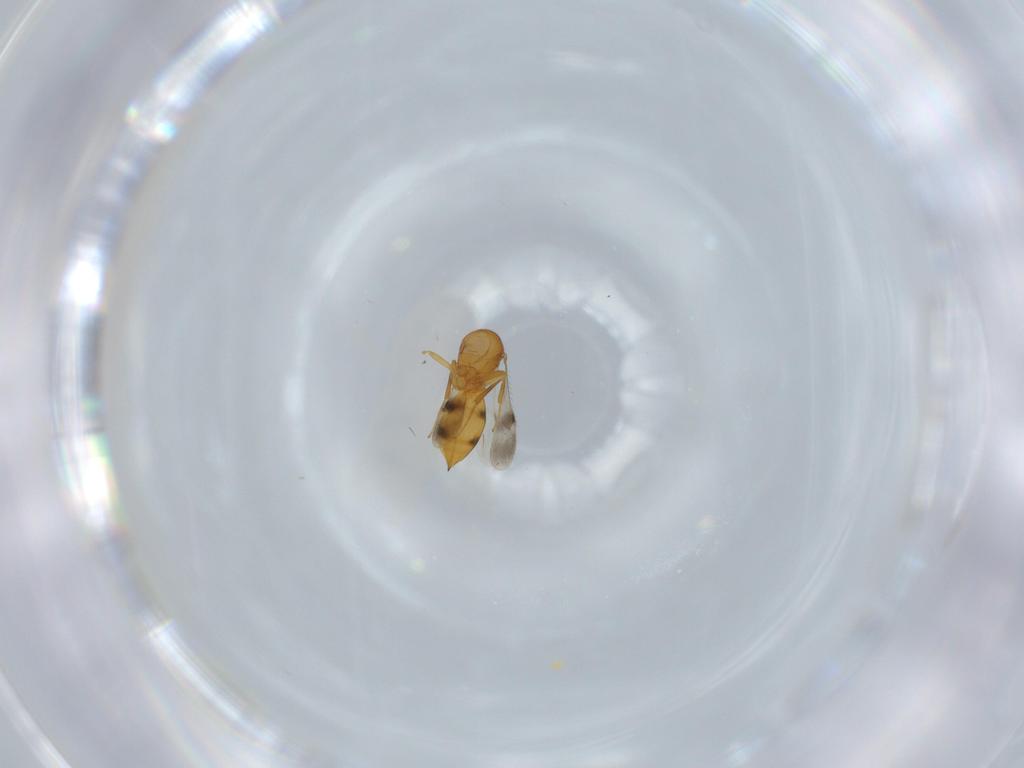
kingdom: Animalia
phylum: Arthropoda
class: Insecta
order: Hymenoptera
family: Scelionidae
